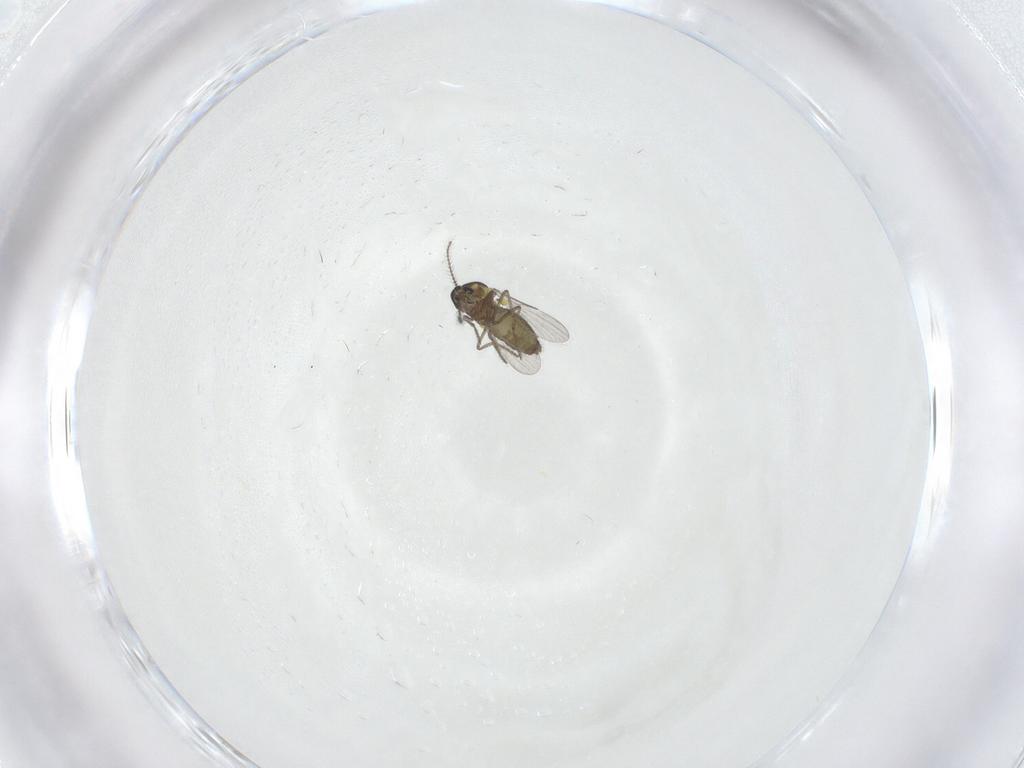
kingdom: Animalia
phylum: Arthropoda
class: Insecta
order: Diptera
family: Ceratopogonidae
